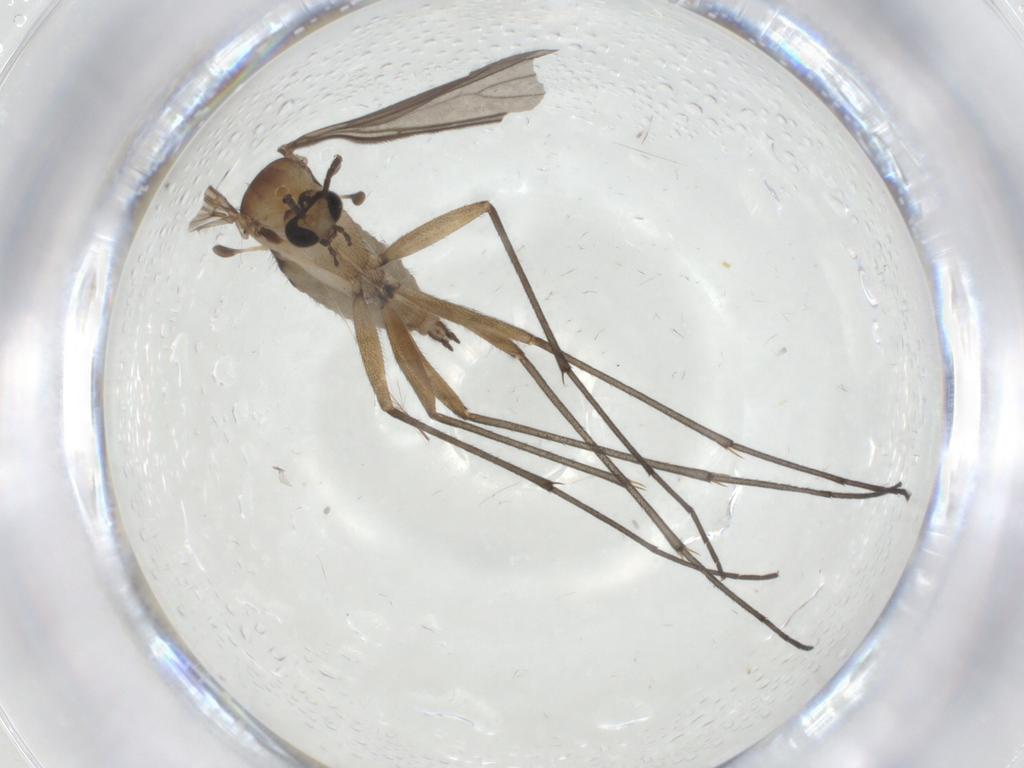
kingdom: Animalia
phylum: Arthropoda
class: Insecta
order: Diptera
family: Sciaridae
